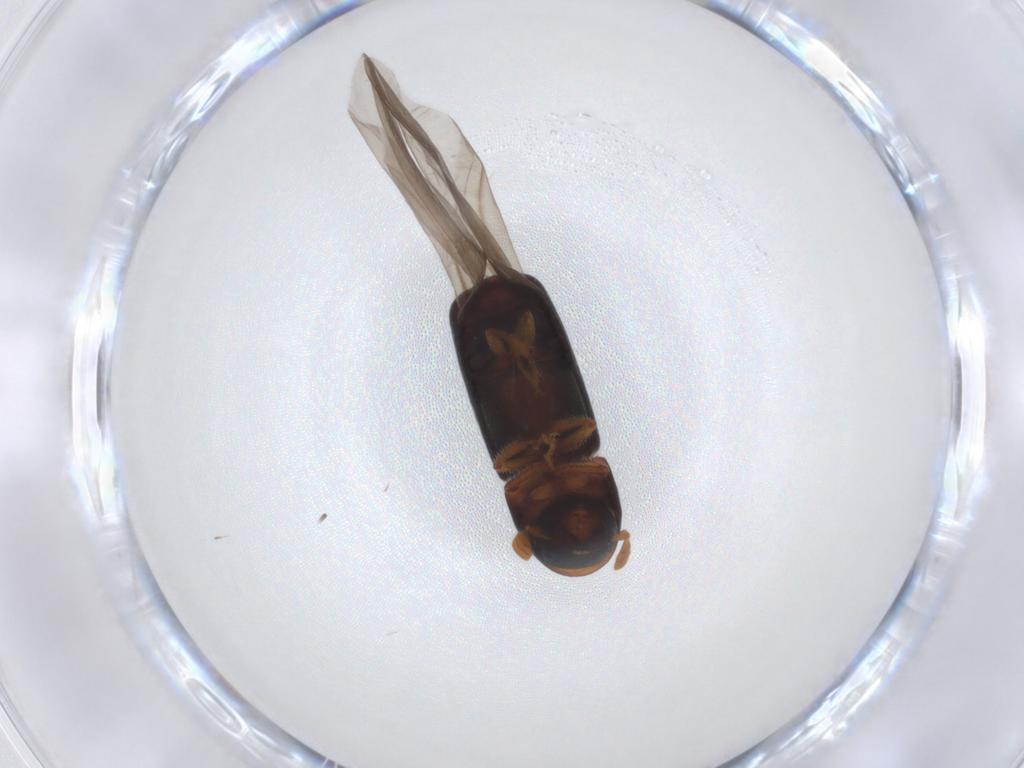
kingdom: Animalia
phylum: Arthropoda
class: Insecta
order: Coleoptera
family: Curculionidae
